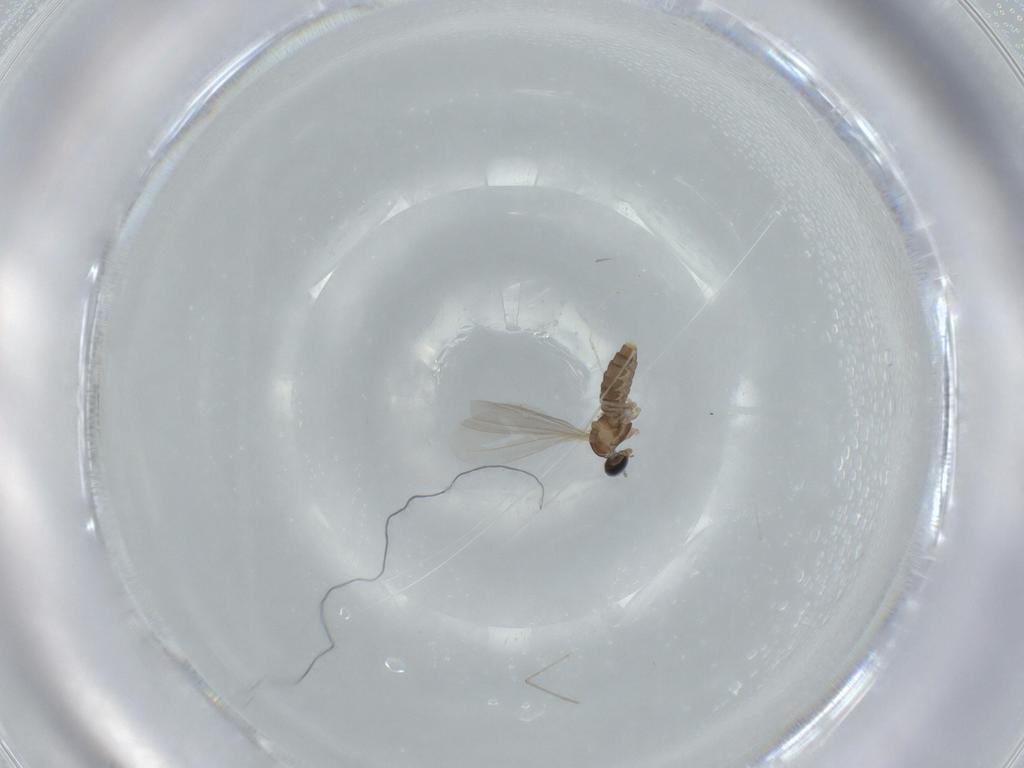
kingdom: Animalia
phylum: Arthropoda
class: Insecta
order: Diptera
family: Cecidomyiidae
